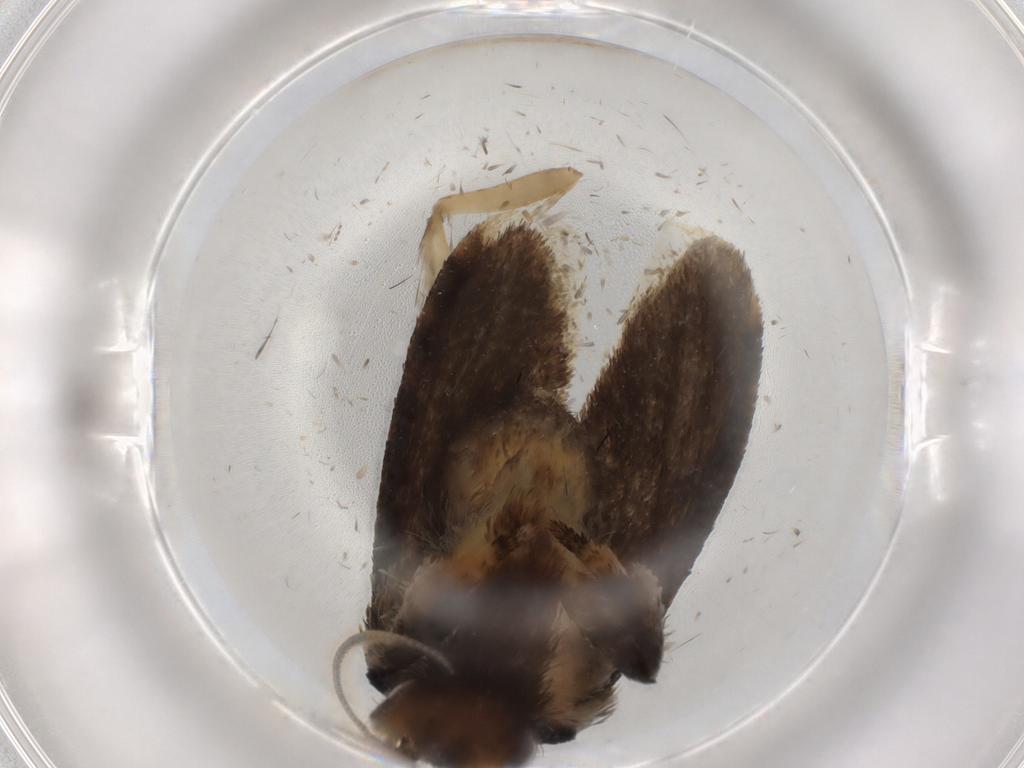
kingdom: Animalia
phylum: Arthropoda
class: Insecta
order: Lepidoptera
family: Tineidae
